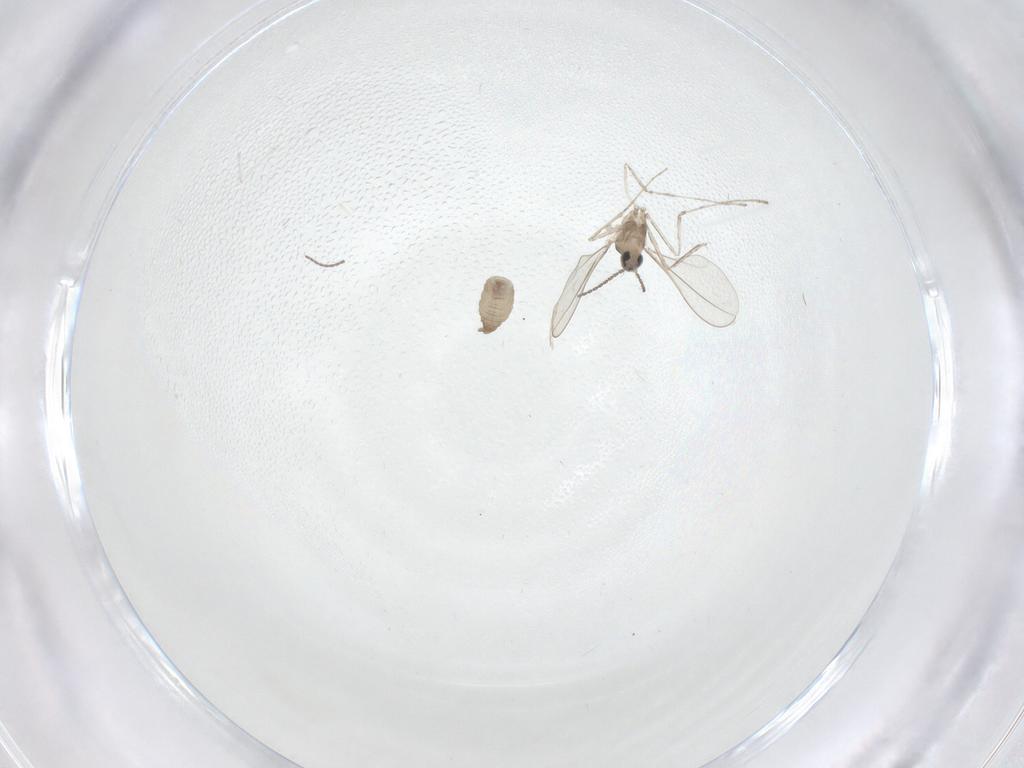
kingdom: Animalia
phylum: Arthropoda
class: Insecta
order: Diptera
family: Cecidomyiidae
